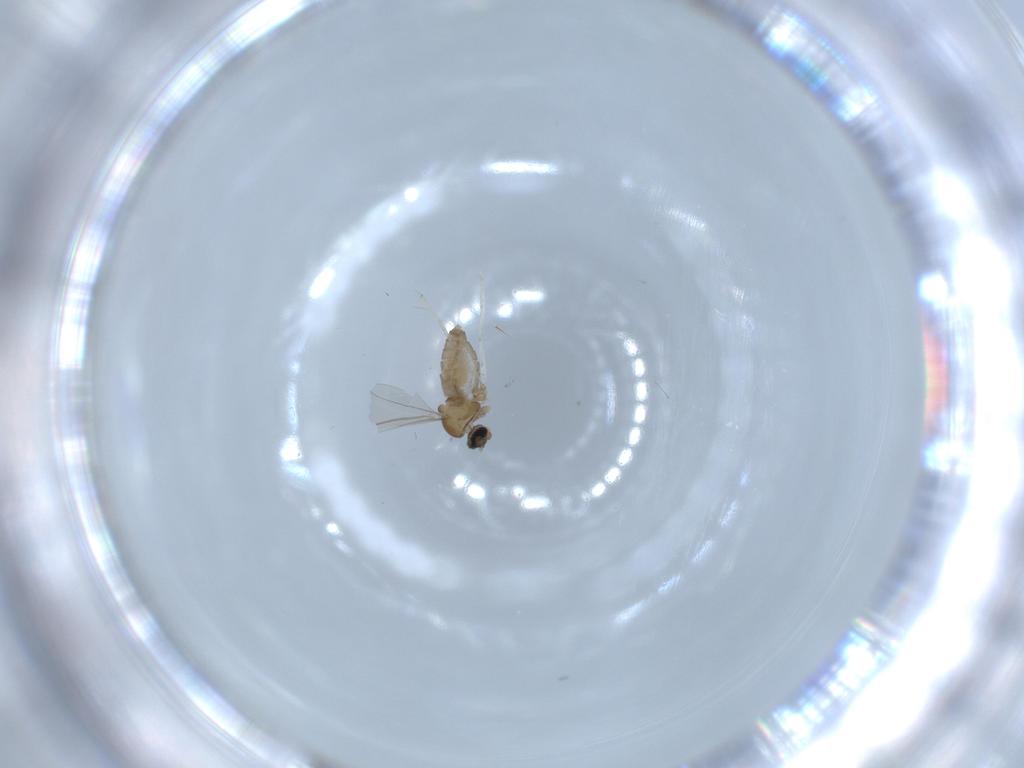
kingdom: Animalia
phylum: Arthropoda
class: Insecta
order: Diptera
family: Cecidomyiidae
